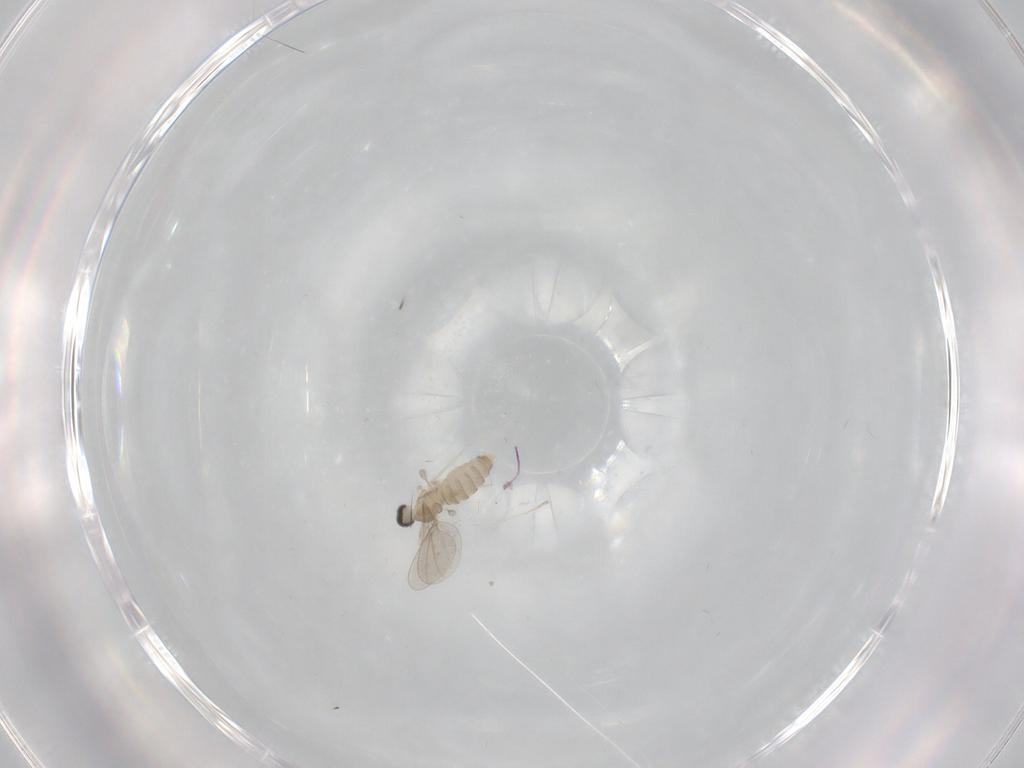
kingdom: Animalia
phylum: Arthropoda
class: Insecta
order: Diptera
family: Cecidomyiidae
